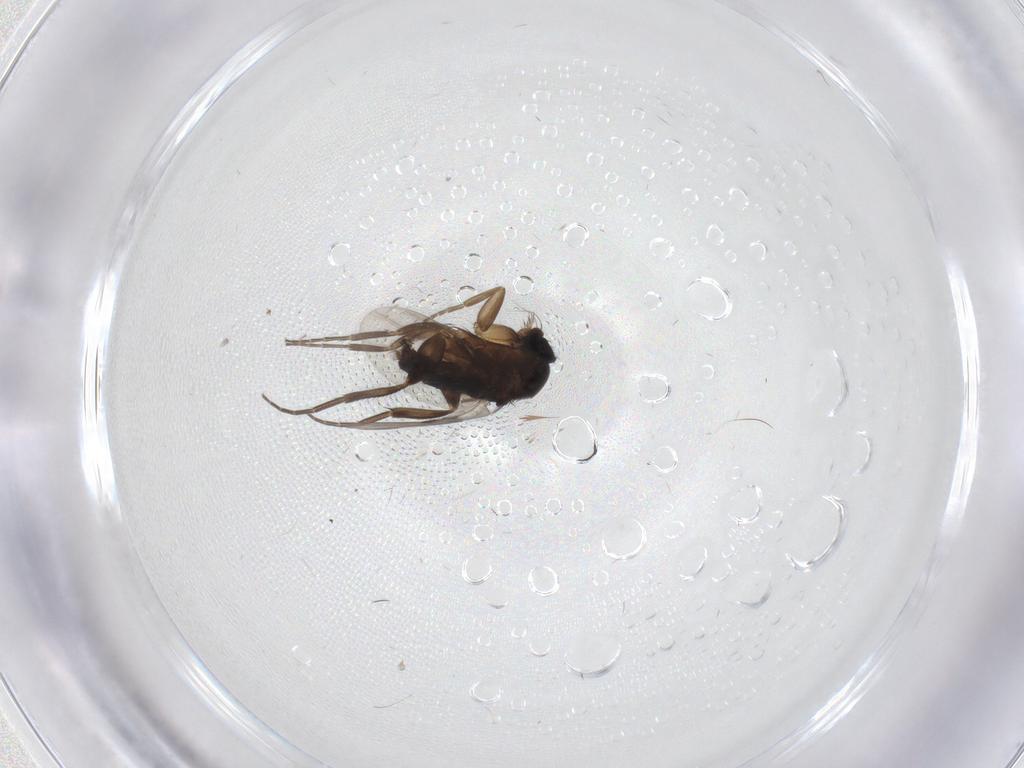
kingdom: Animalia
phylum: Arthropoda
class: Insecta
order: Diptera
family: Phoridae
